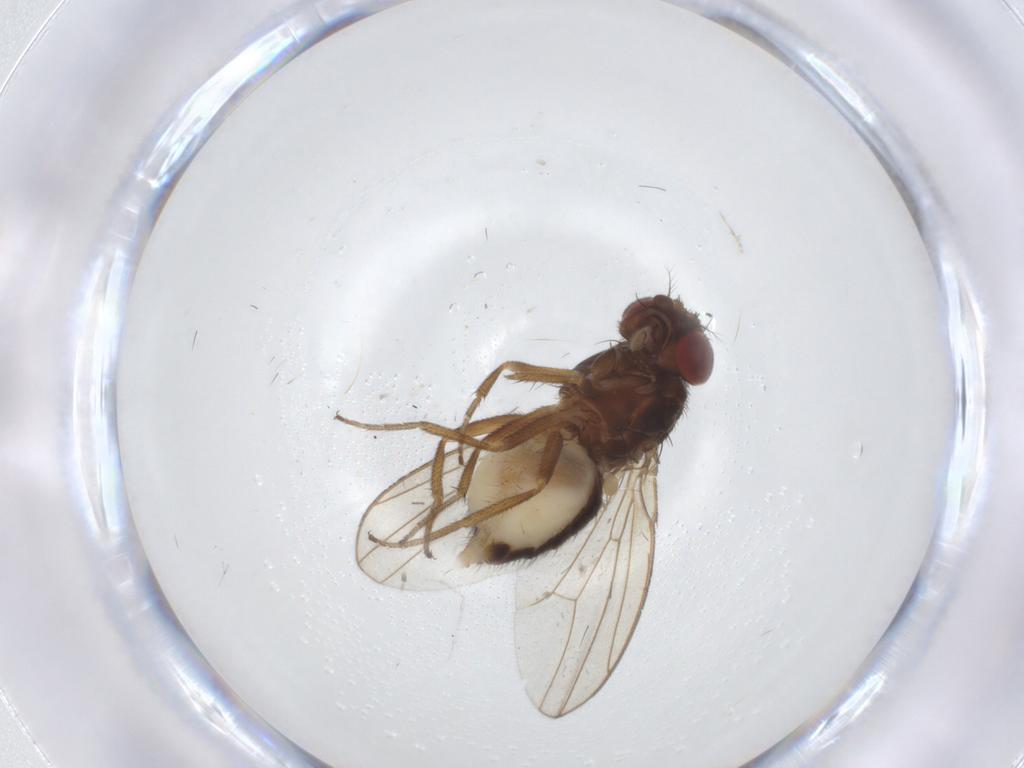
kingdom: Animalia
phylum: Arthropoda
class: Insecta
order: Diptera
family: Drosophilidae
